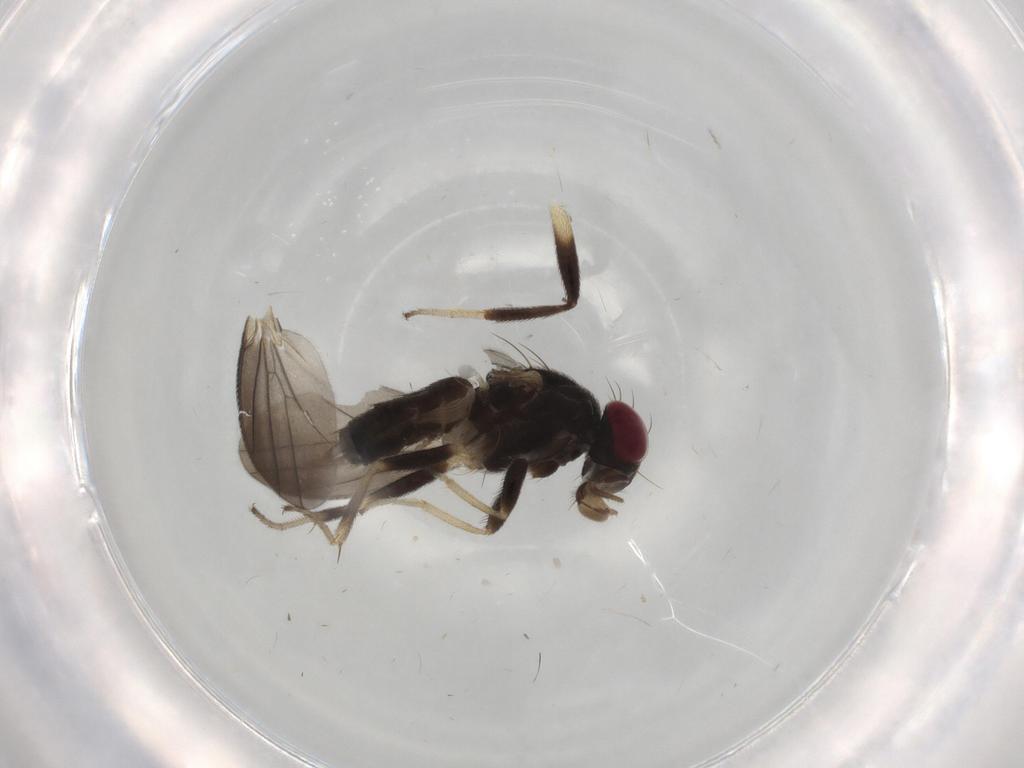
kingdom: Animalia
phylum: Arthropoda
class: Insecta
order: Diptera
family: Clusiidae
